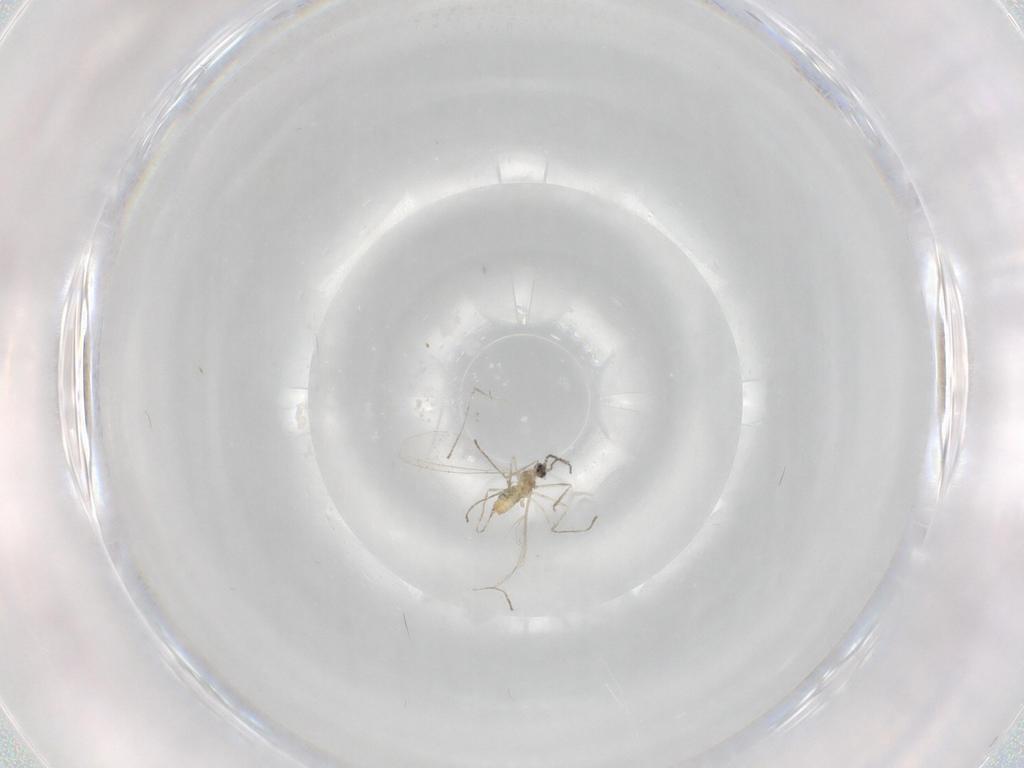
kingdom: Animalia
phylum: Arthropoda
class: Insecta
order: Diptera
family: Cecidomyiidae
